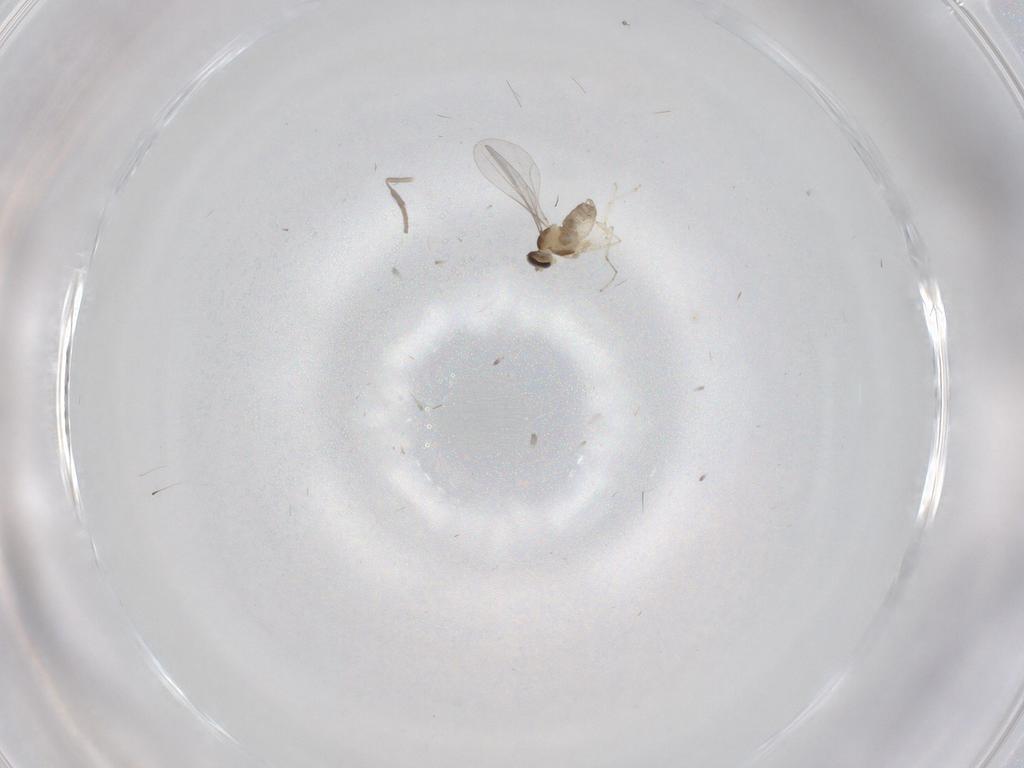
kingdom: Animalia
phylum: Arthropoda
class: Insecta
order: Diptera
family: Cecidomyiidae
